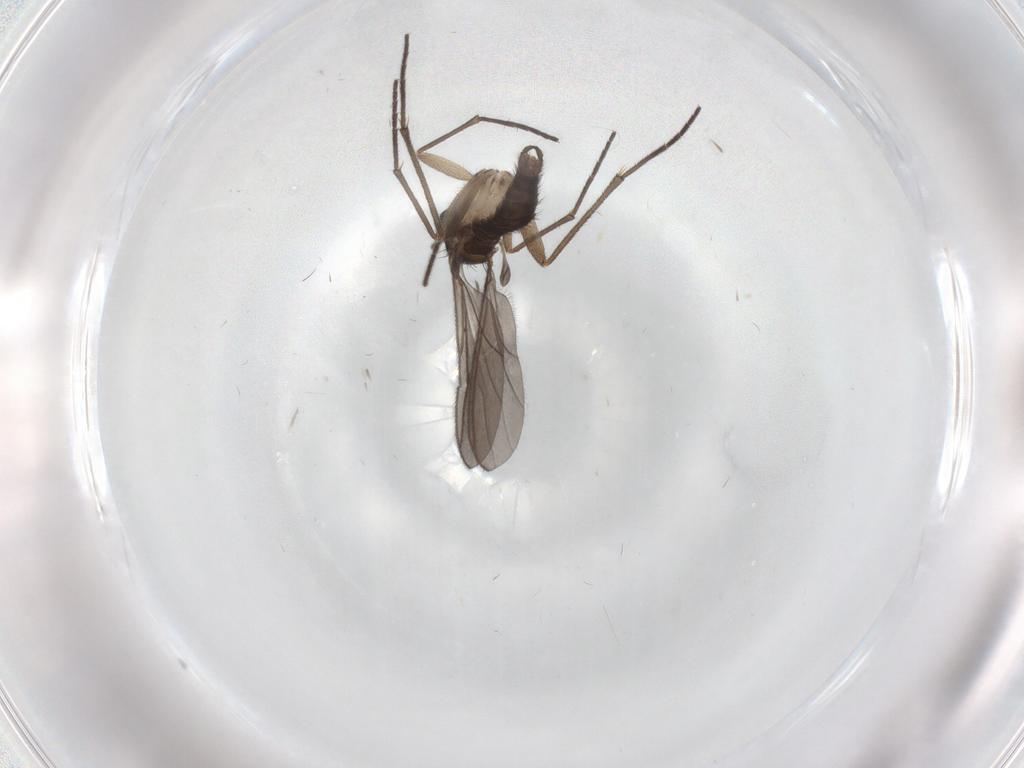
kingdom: Animalia
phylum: Arthropoda
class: Insecta
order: Diptera
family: Sciaridae
